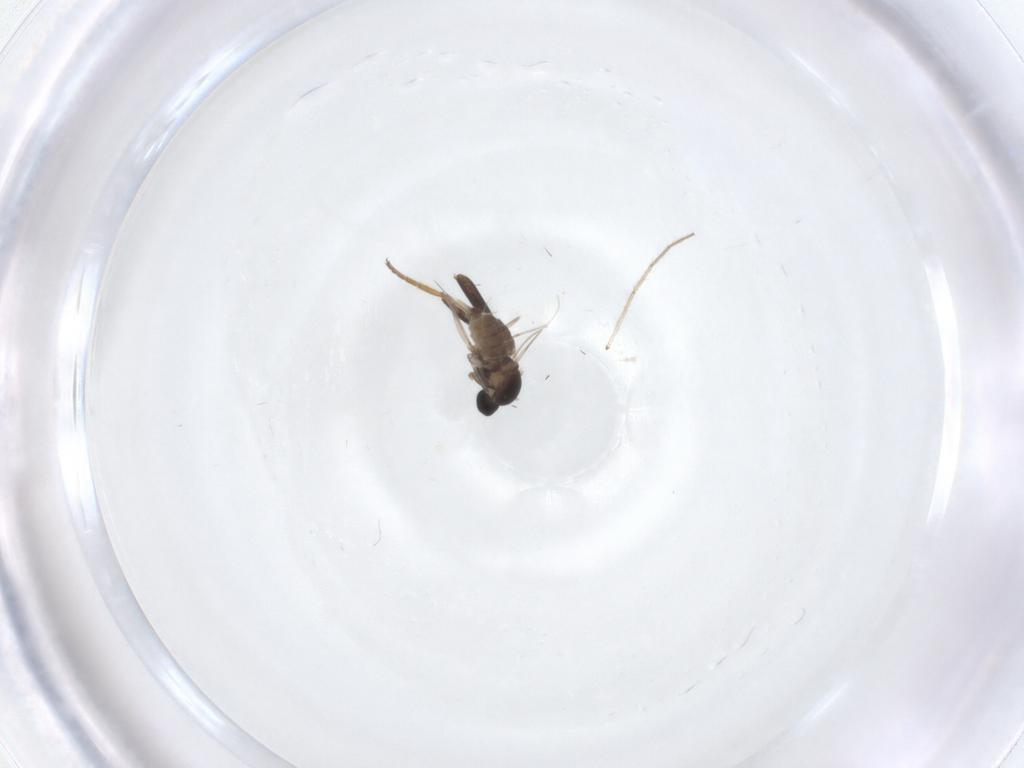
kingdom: Animalia
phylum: Arthropoda
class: Insecta
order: Diptera
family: Cecidomyiidae
